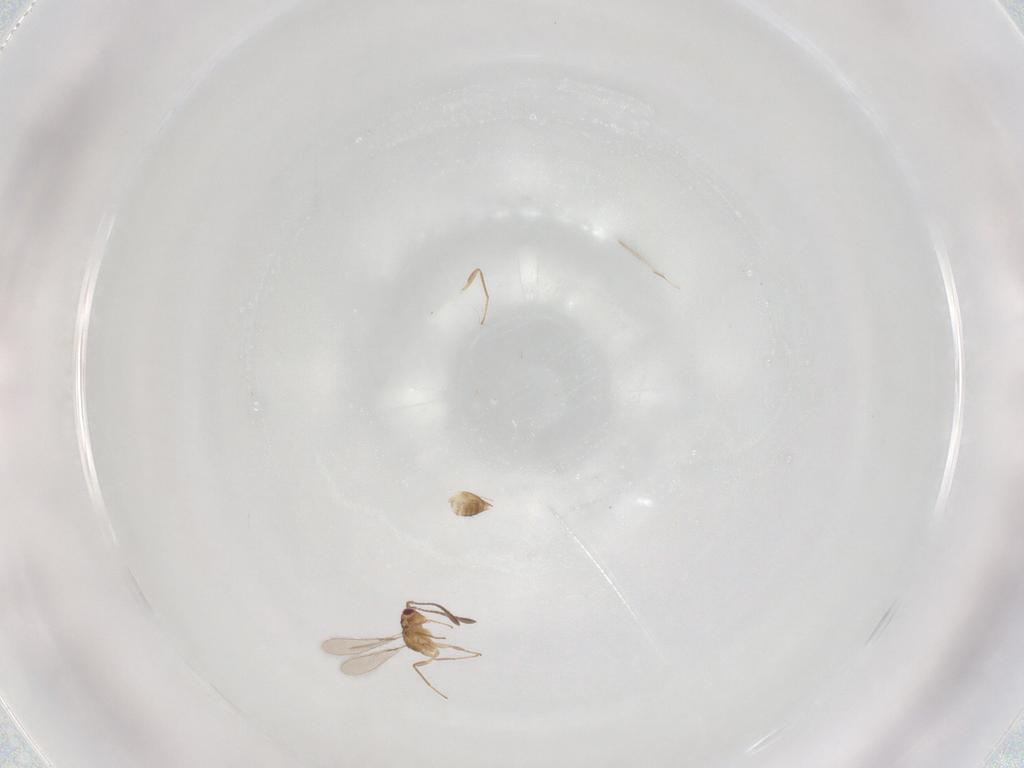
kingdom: Animalia
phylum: Arthropoda
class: Insecta
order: Hymenoptera
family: Mymaridae
